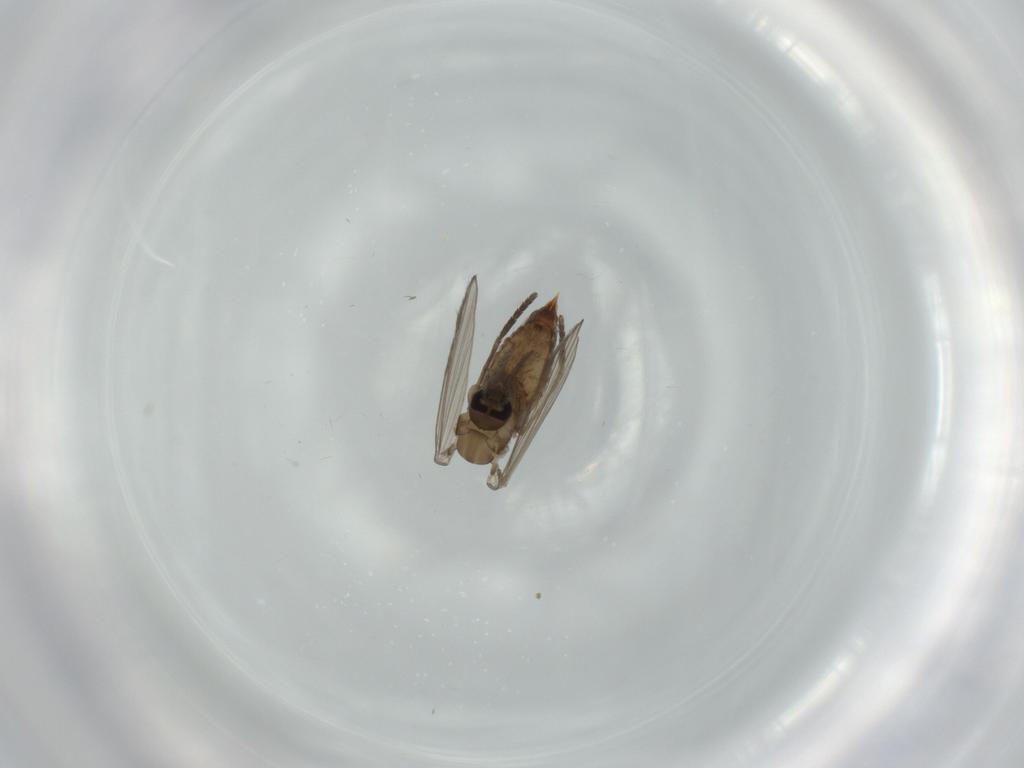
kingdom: Animalia
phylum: Arthropoda
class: Insecta
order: Diptera
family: Psychodidae
